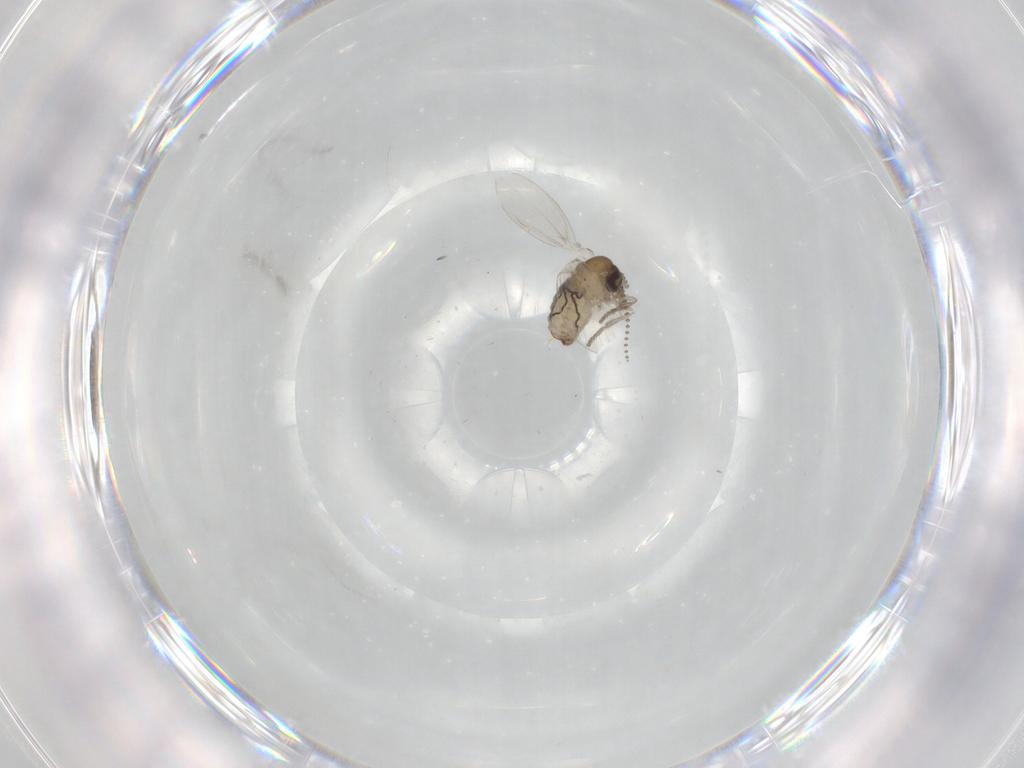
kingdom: Animalia
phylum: Arthropoda
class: Insecta
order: Diptera
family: Psychodidae
